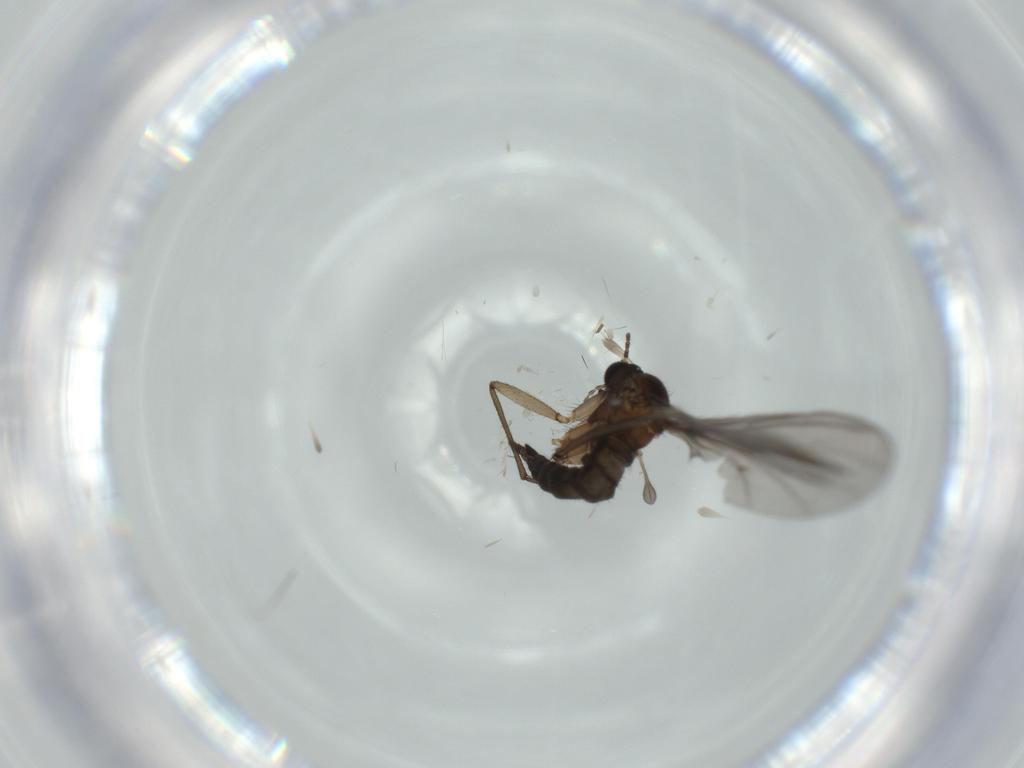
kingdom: Animalia
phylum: Arthropoda
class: Insecta
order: Diptera
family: Sciaridae
